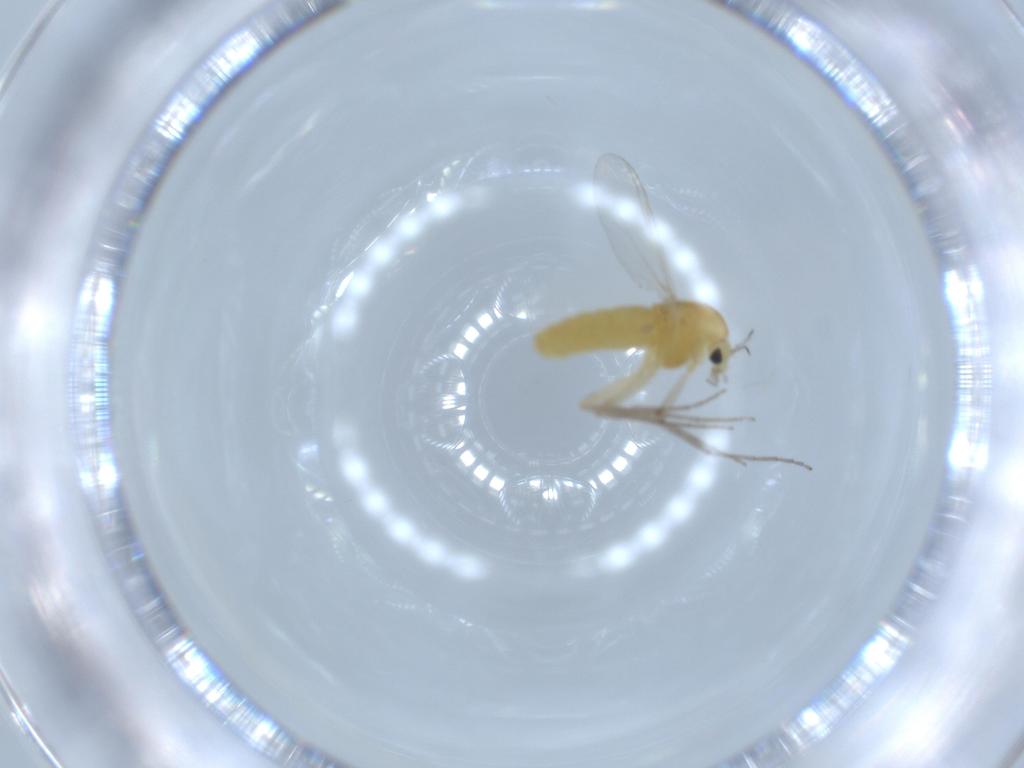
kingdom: Animalia
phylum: Arthropoda
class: Insecta
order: Diptera
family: Chironomidae
